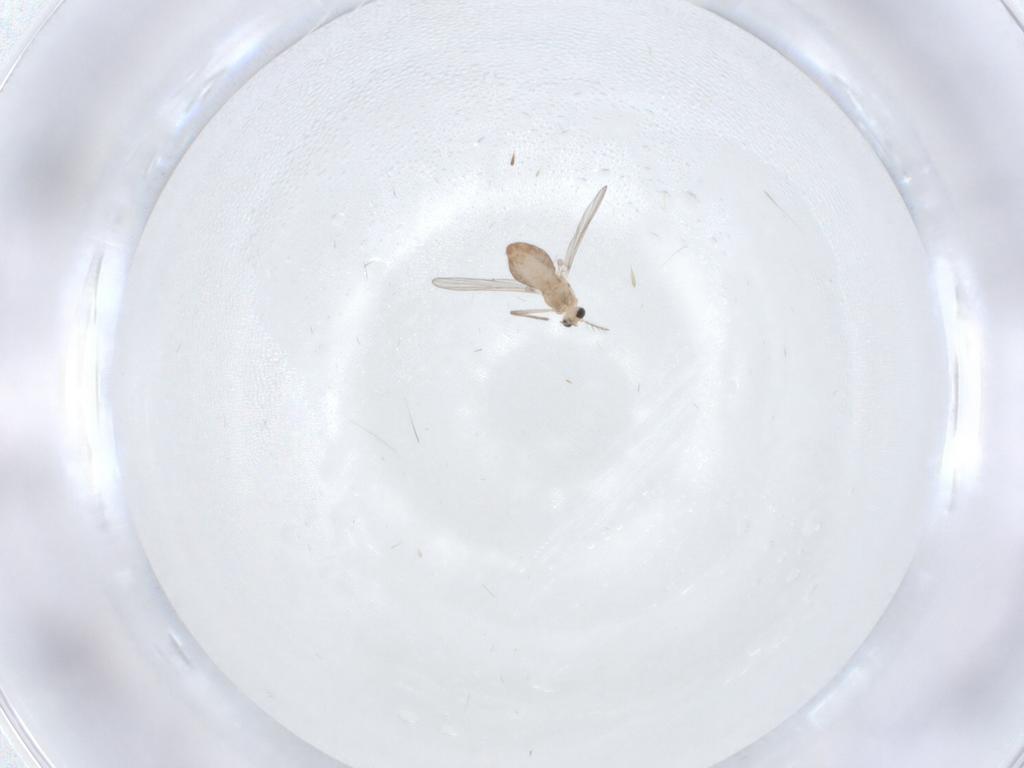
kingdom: Animalia
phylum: Arthropoda
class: Insecta
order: Diptera
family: Chironomidae
